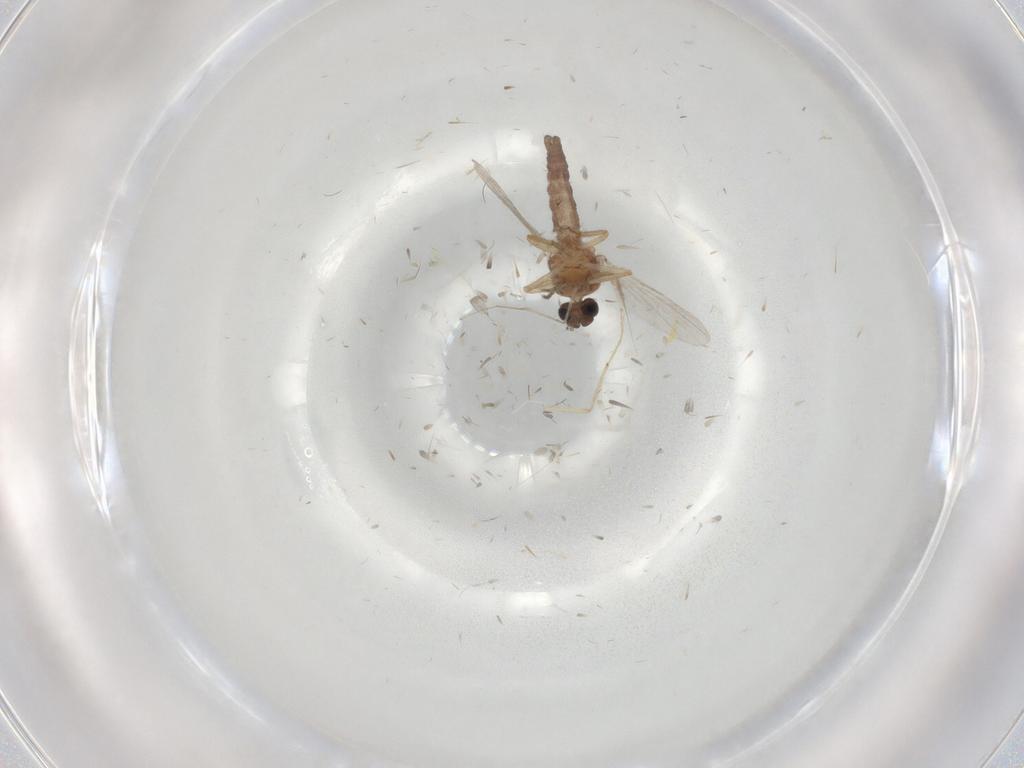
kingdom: Animalia
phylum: Arthropoda
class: Insecta
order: Diptera
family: Ceratopogonidae
